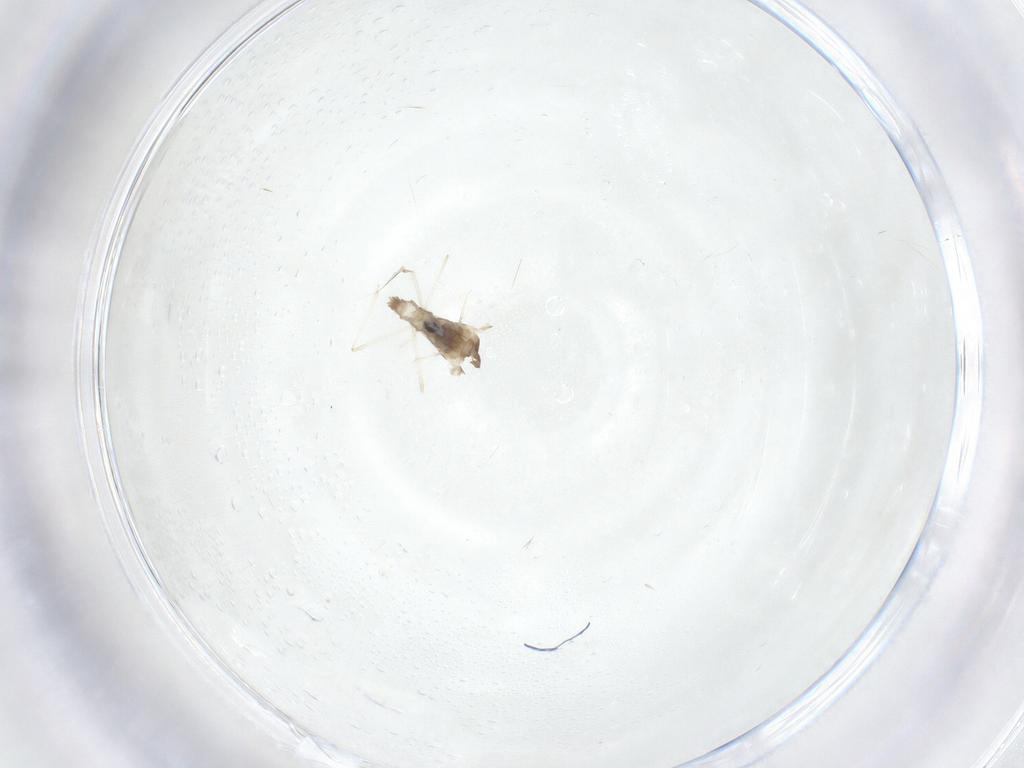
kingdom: Animalia
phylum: Arthropoda
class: Insecta
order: Diptera
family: Cecidomyiidae
